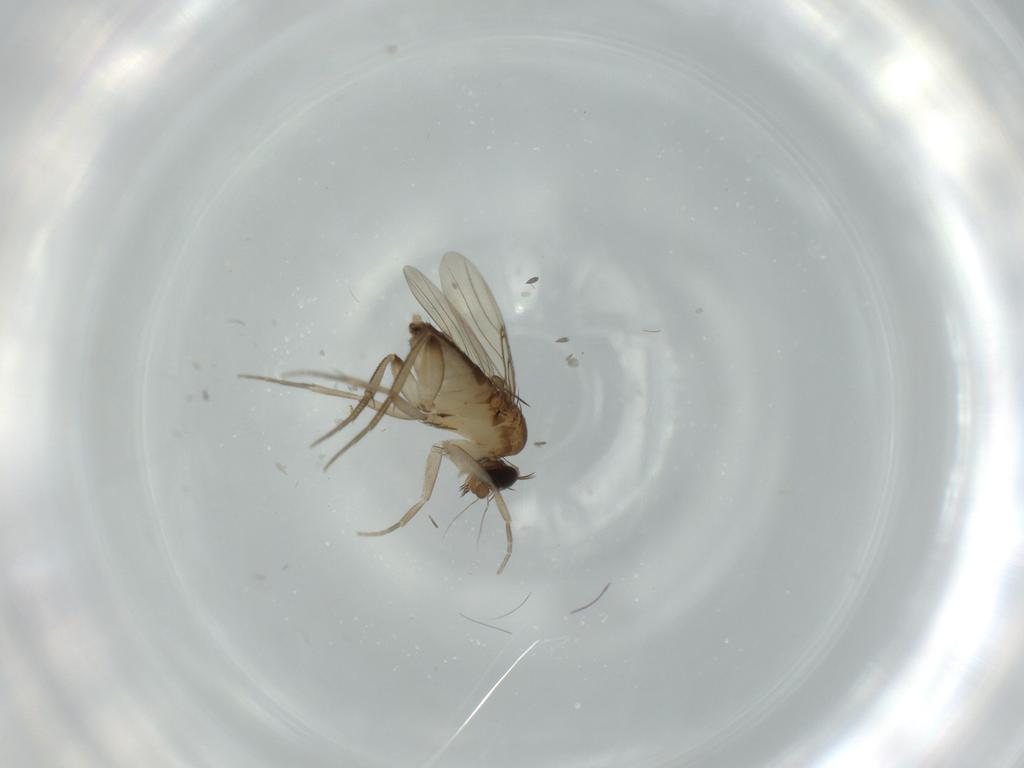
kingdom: Animalia
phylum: Arthropoda
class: Insecta
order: Diptera
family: Phoridae
